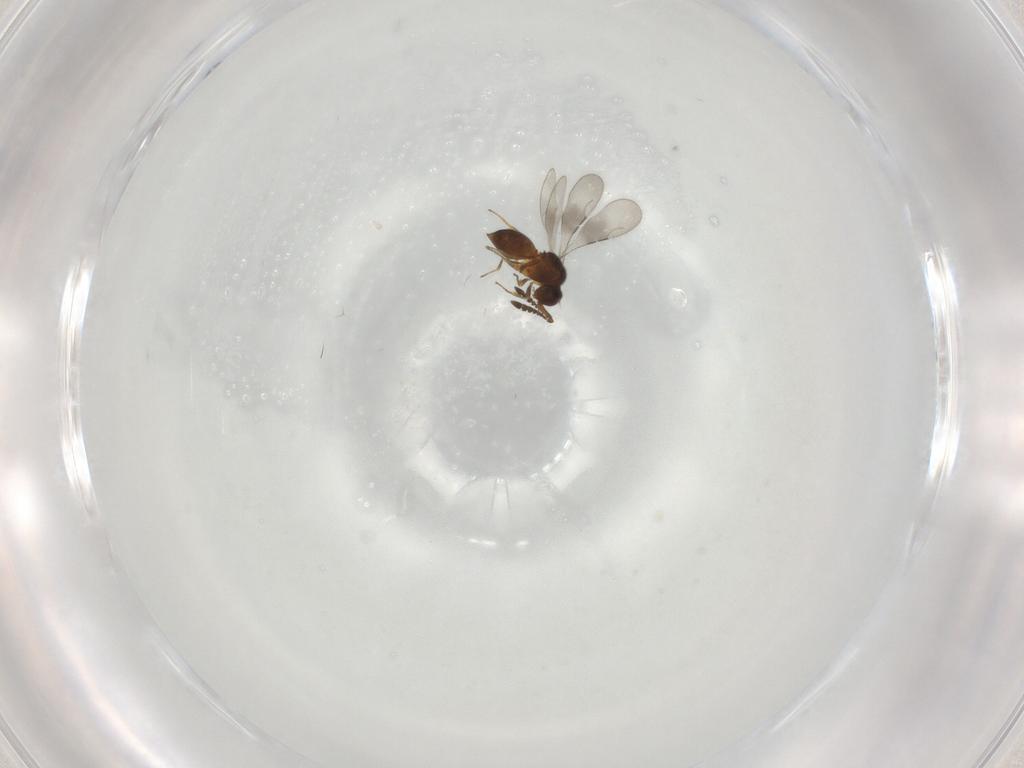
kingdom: Animalia
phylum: Arthropoda
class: Insecta
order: Hymenoptera
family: Ceraphronidae
